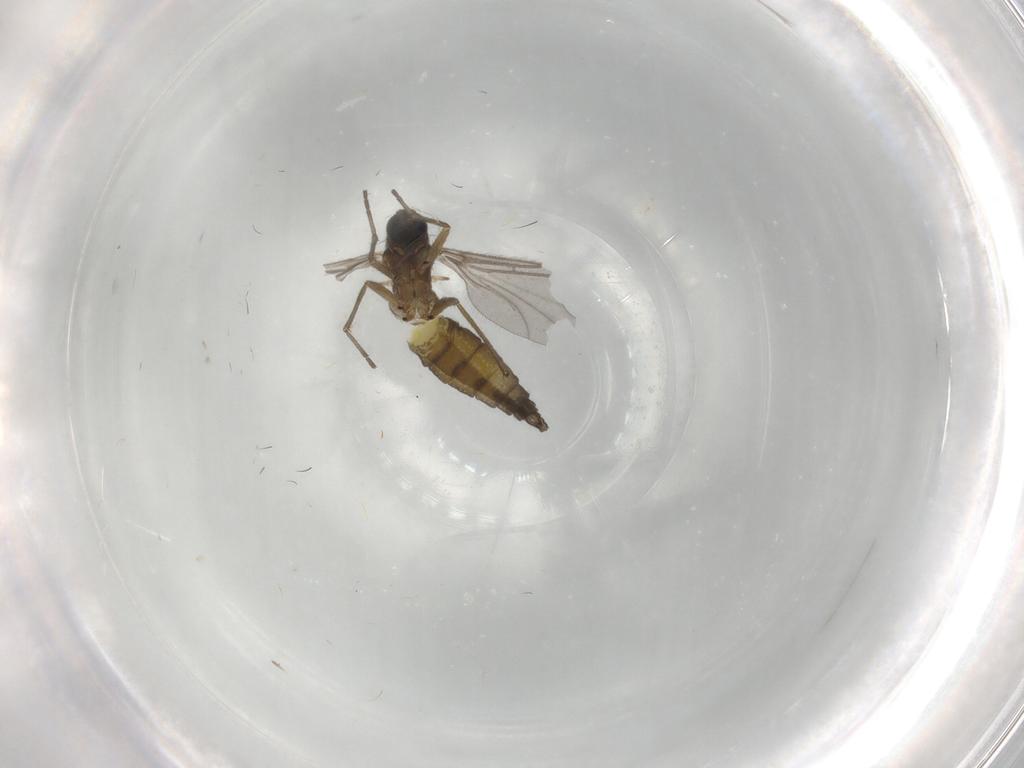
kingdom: Animalia
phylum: Arthropoda
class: Insecta
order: Diptera
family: Sciaridae
